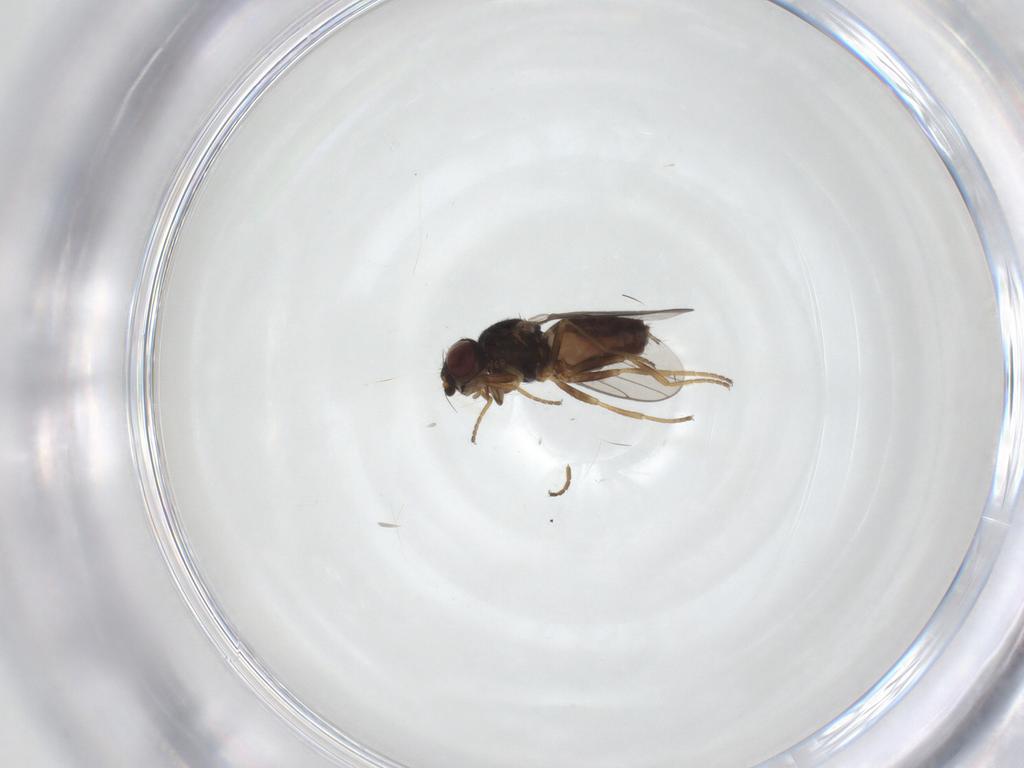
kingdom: Animalia
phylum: Arthropoda
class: Insecta
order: Diptera
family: Chloropidae
